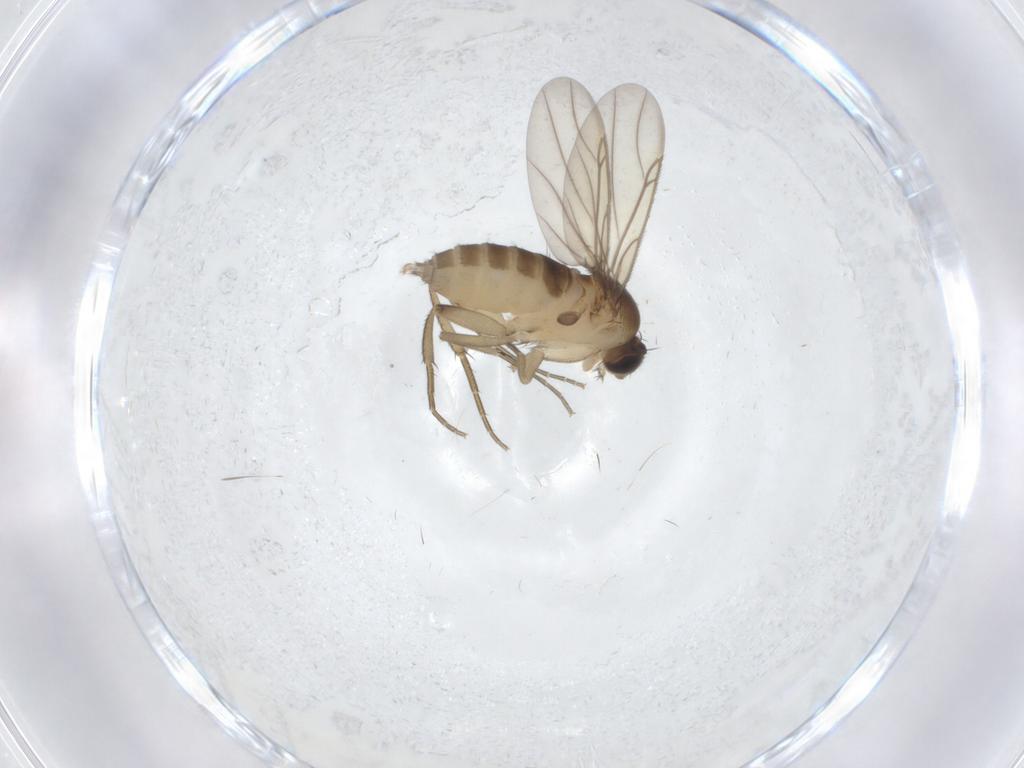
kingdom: Animalia
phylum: Arthropoda
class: Insecta
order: Diptera
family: Phoridae
